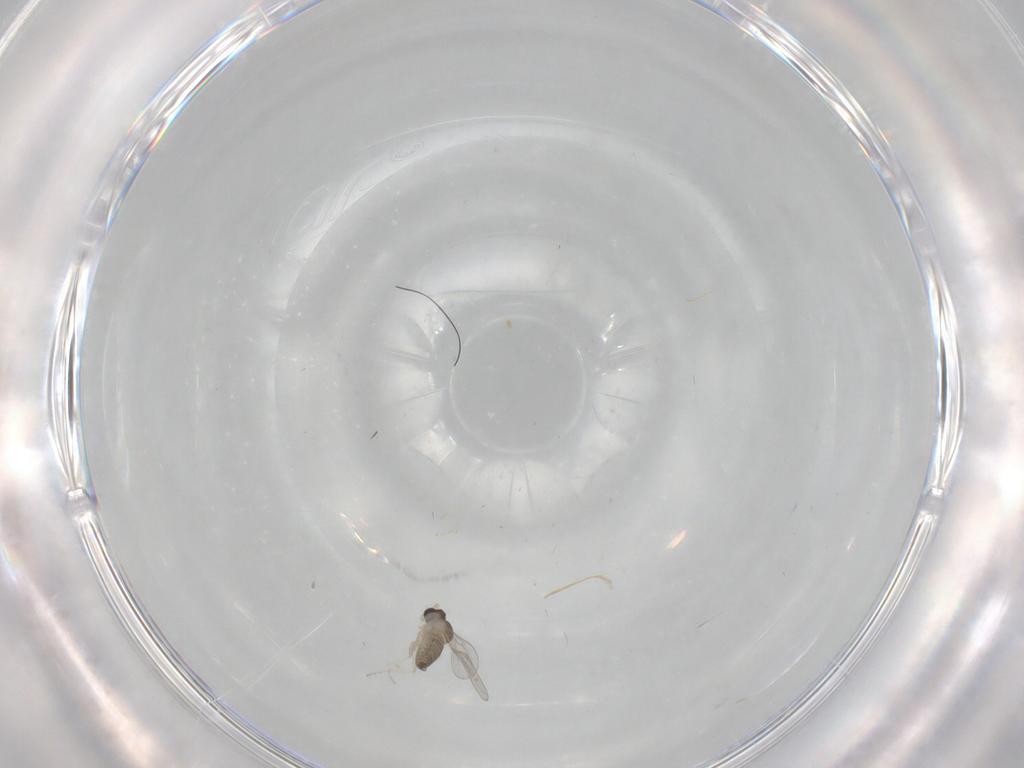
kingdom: Animalia
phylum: Arthropoda
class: Insecta
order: Diptera
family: Cecidomyiidae
